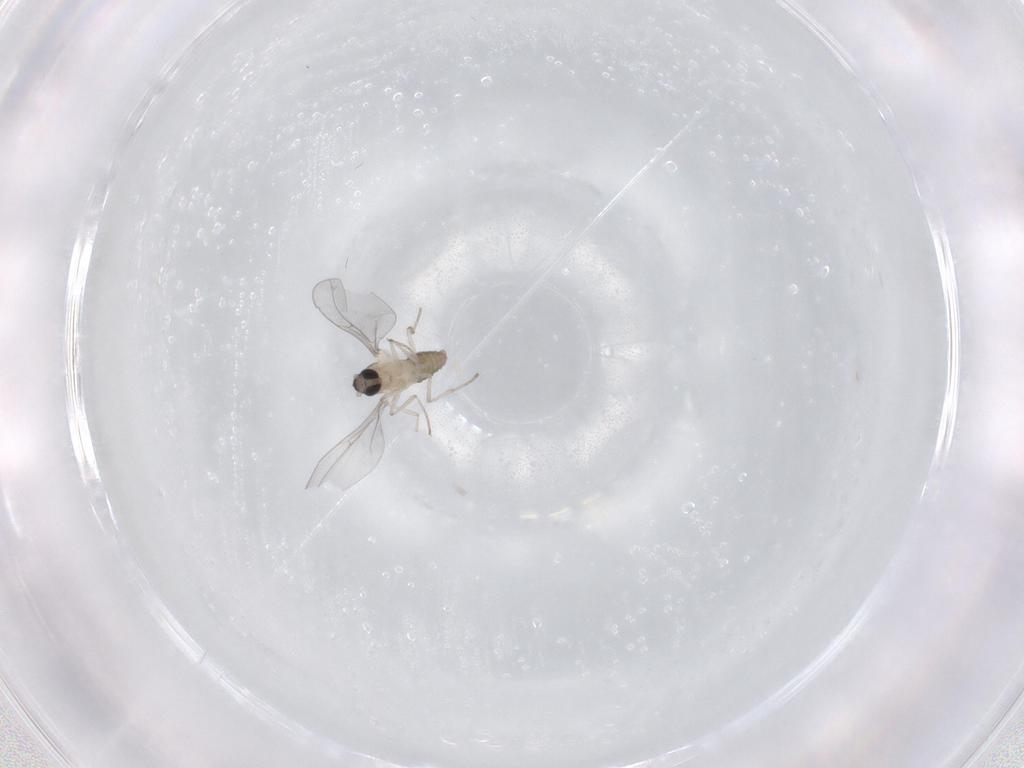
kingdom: Animalia
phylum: Arthropoda
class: Insecta
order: Diptera
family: Cecidomyiidae
